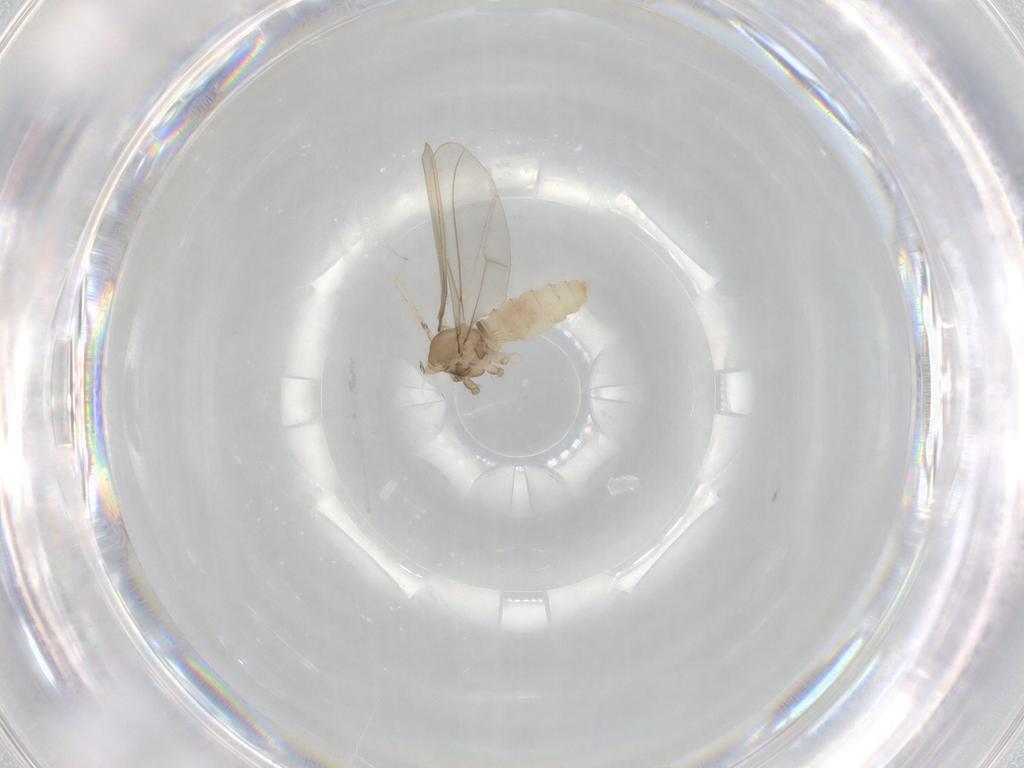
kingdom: Animalia
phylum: Arthropoda
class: Insecta
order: Diptera
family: Cecidomyiidae
